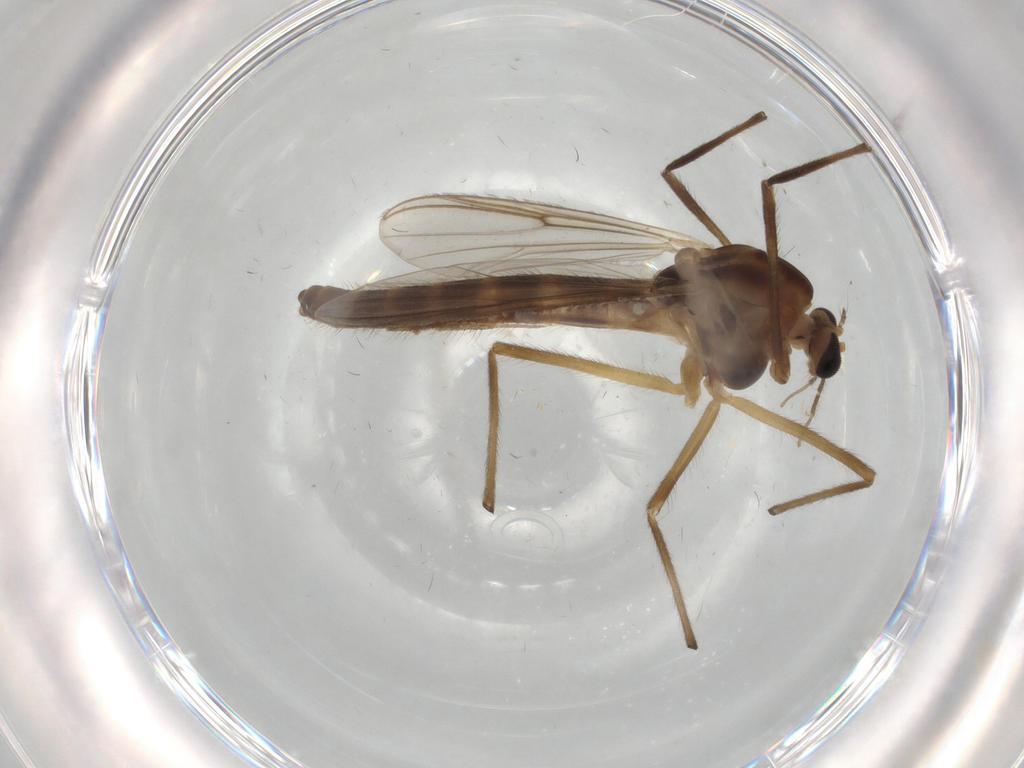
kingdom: Animalia
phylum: Arthropoda
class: Insecta
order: Diptera
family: Chironomidae
